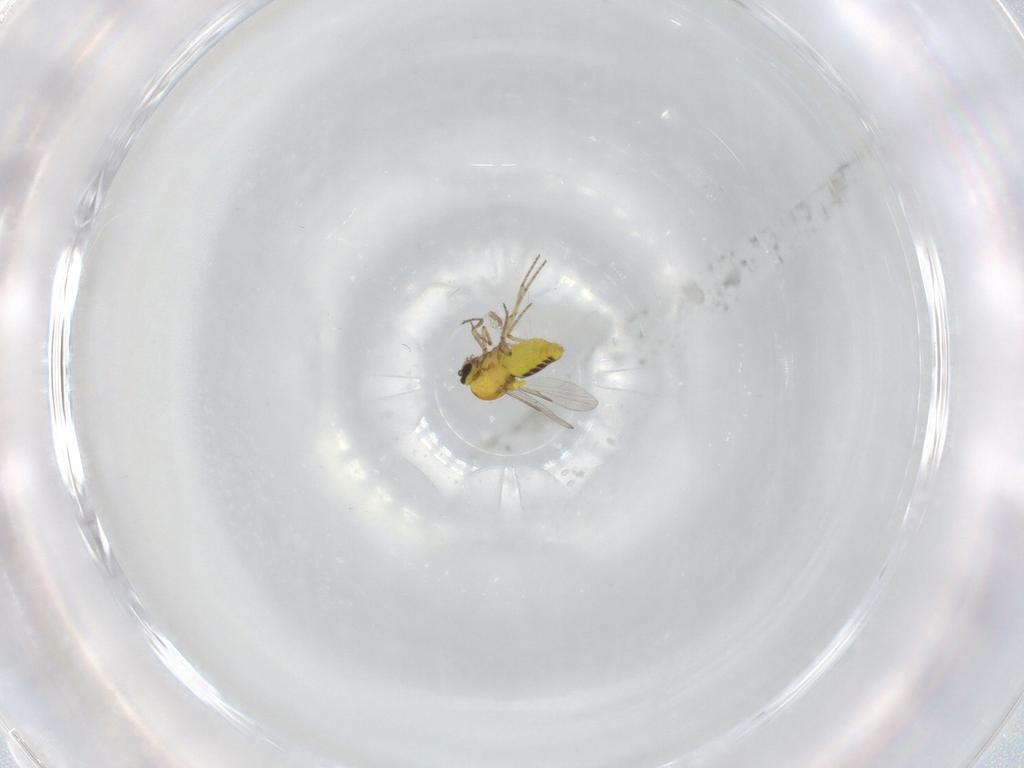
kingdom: Animalia
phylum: Arthropoda
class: Insecta
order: Diptera
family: Ceratopogonidae
